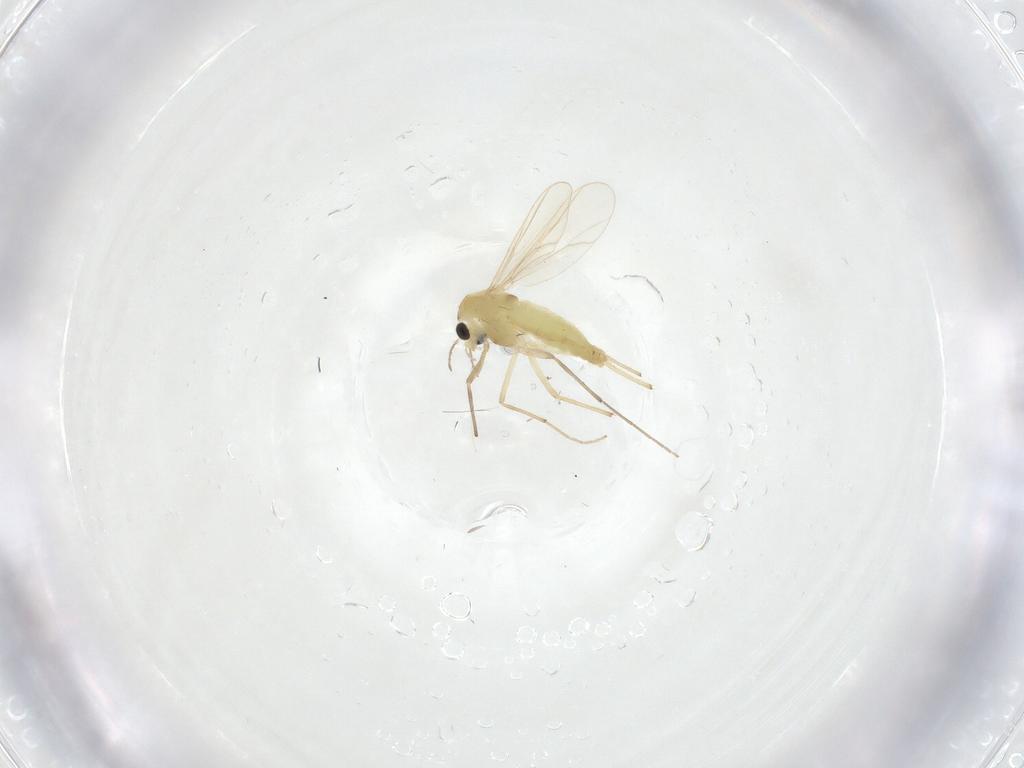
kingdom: Animalia
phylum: Arthropoda
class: Insecta
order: Diptera
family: Chironomidae
